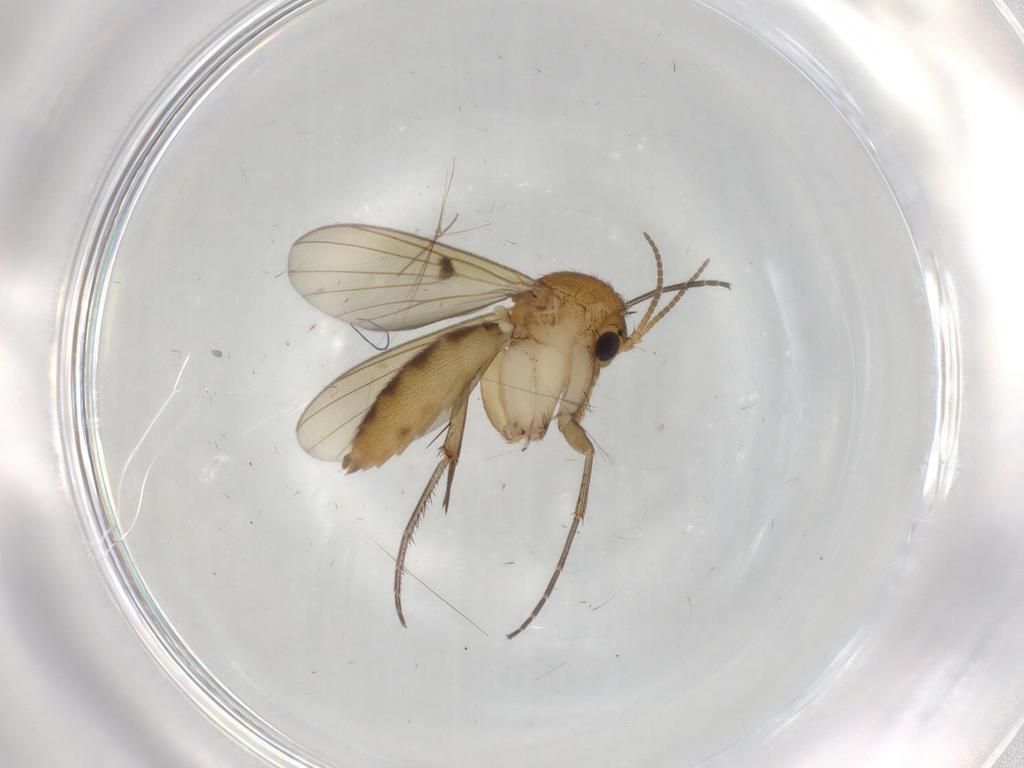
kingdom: Animalia
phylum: Arthropoda
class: Insecta
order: Diptera
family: Mycetophilidae
